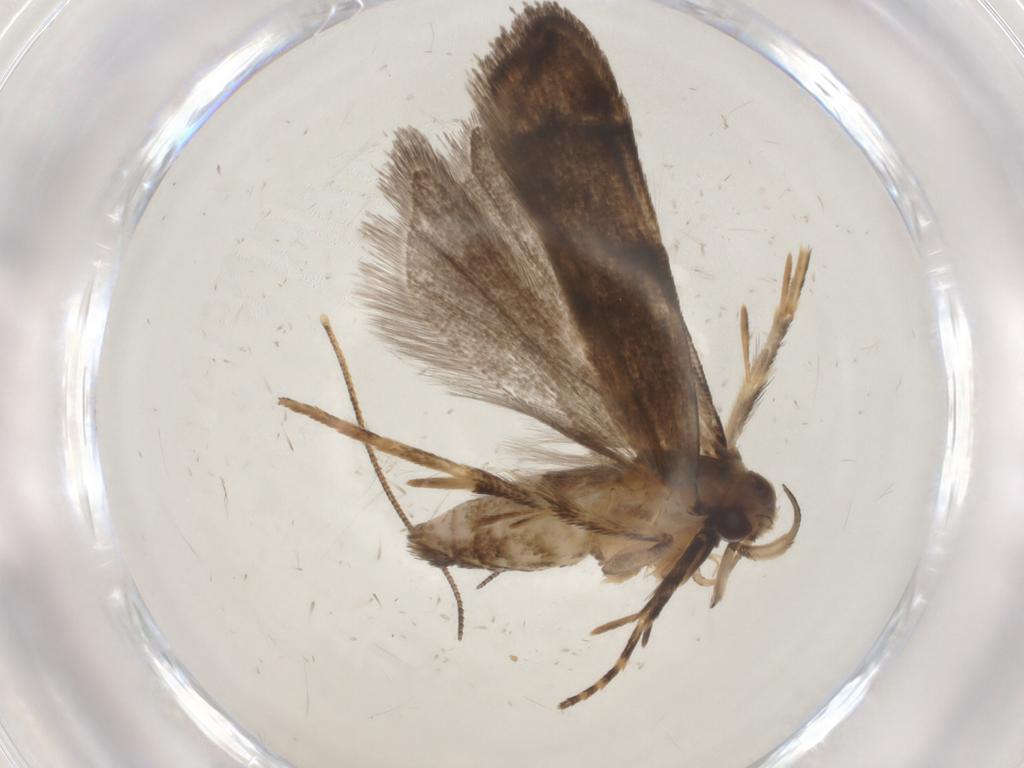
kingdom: Animalia
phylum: Arthropoda
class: Insecta
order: Lepidoptera
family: Gelechiidae
